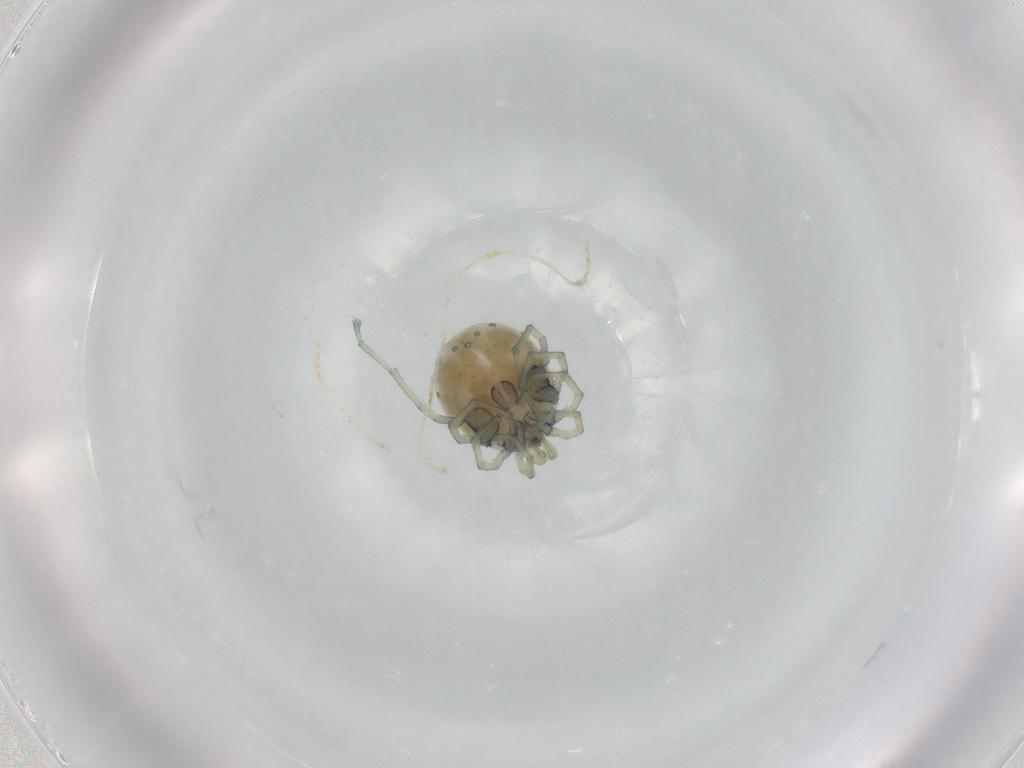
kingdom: Animalia
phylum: Arthropoda
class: Arachnida
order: Trombidiformes
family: Sperchontidae
